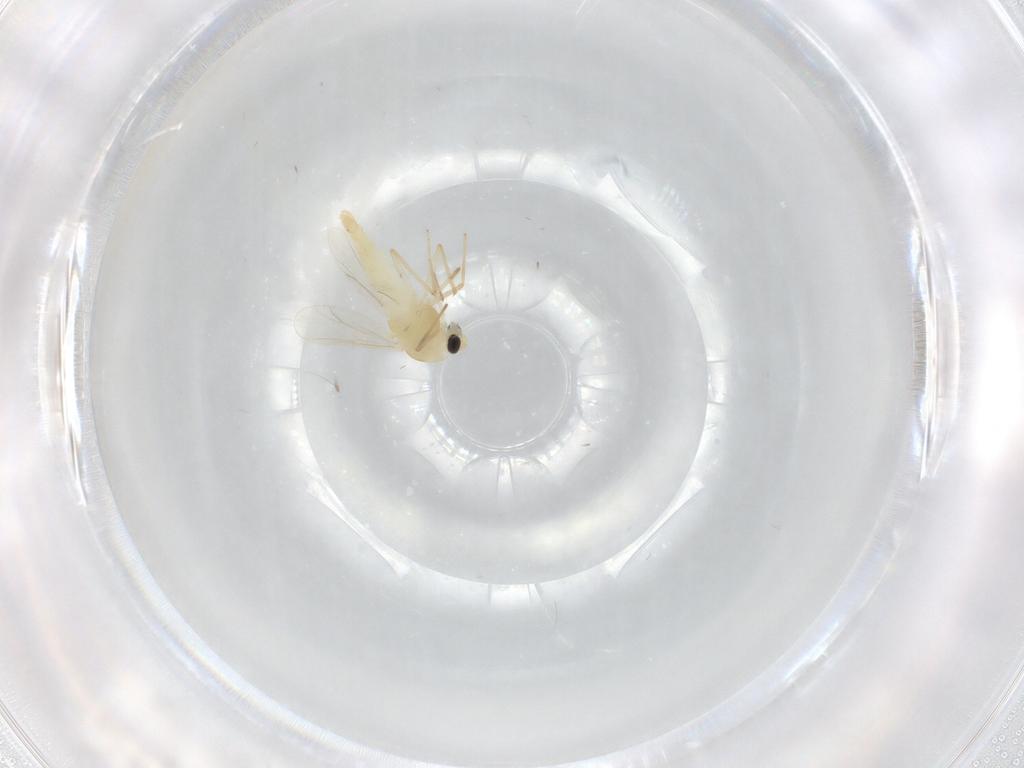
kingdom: Animalia
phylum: Arthropoda
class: Insecta
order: Diptera
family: Chironomidae
